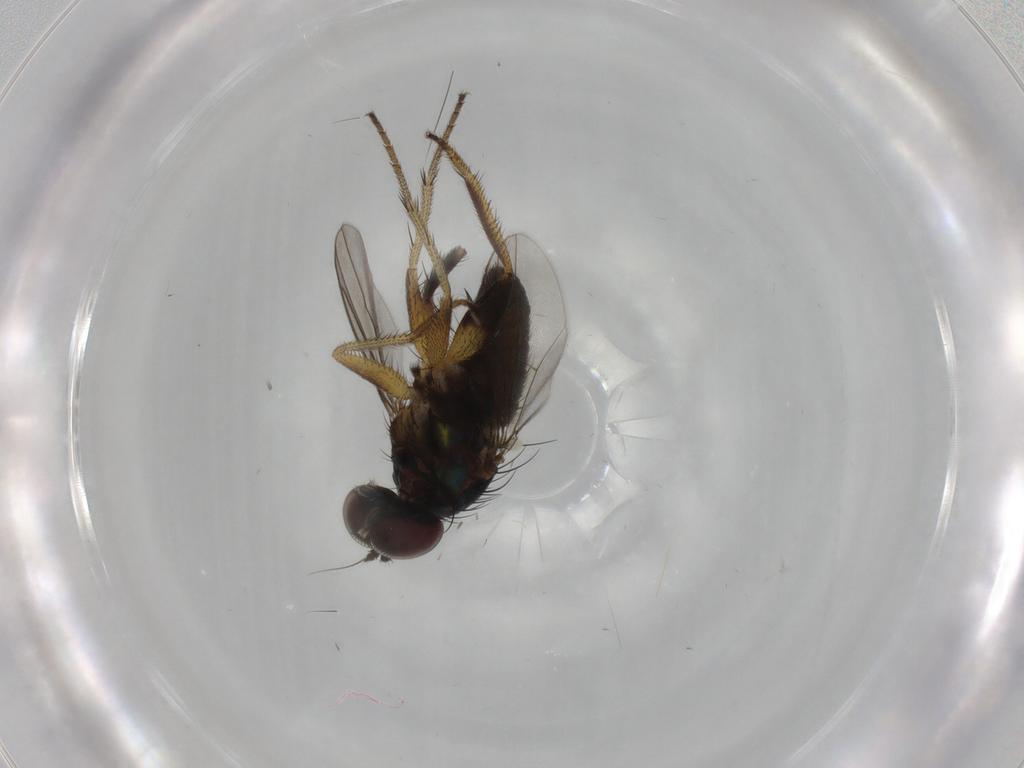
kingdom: Animalia
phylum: Arthropoda
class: Insecta
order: Diptera
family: Dolichopodidae
